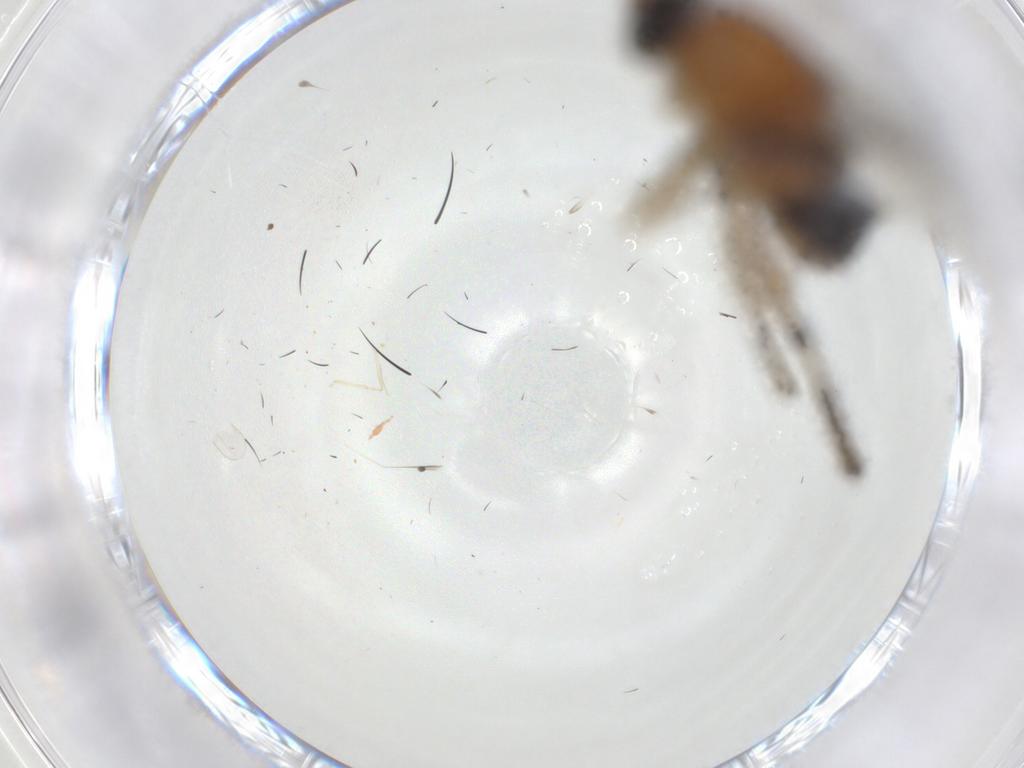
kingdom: Animalia
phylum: Arthropoda
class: Insecta
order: Diptera
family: Phoridae
